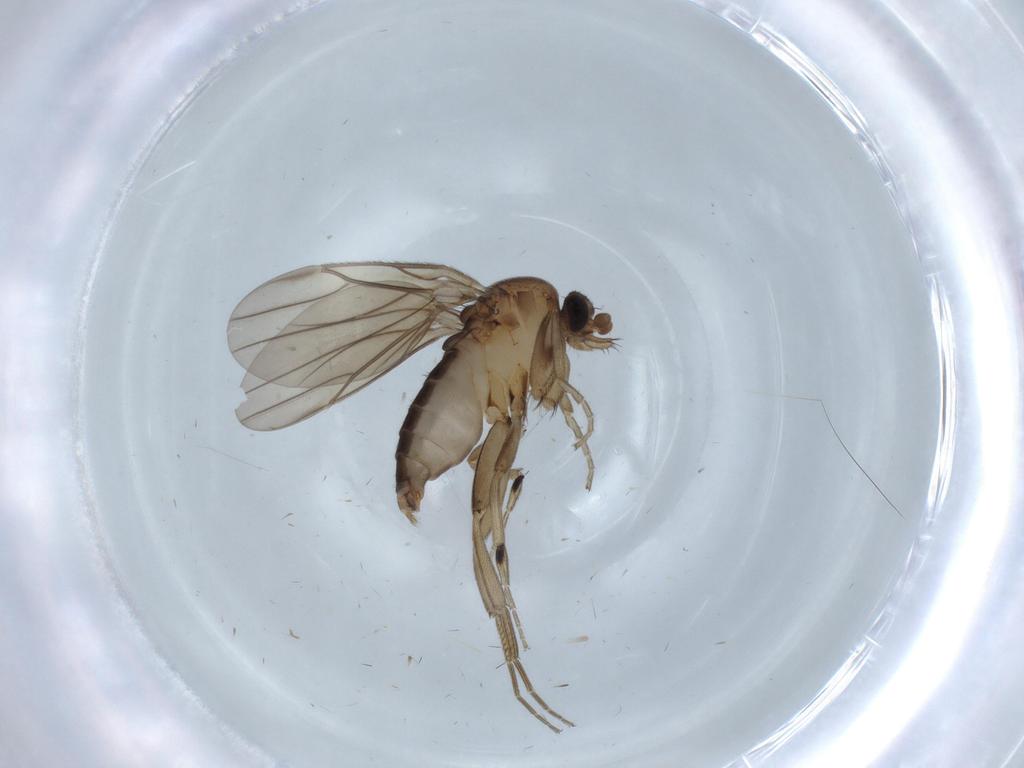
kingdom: Animalia
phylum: Arthropoda
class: Insecta
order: Diptera
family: Phoridae
